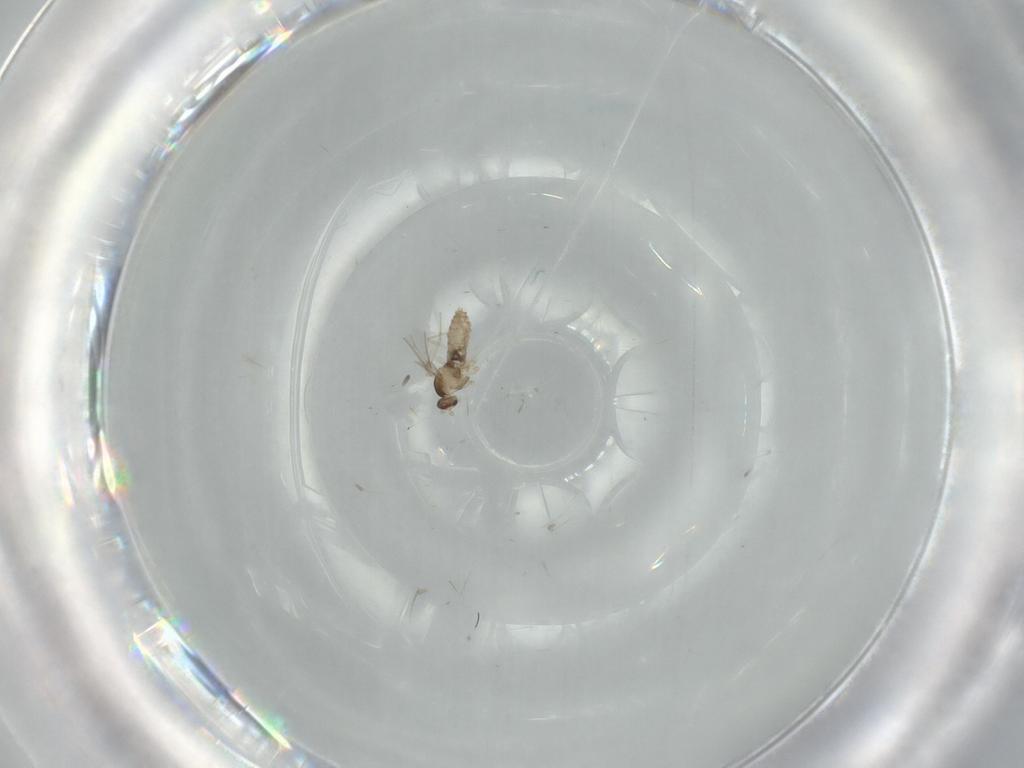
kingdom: Animalia
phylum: Arthropoda
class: Insecta
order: Diptera
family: Cecidomyiidae
